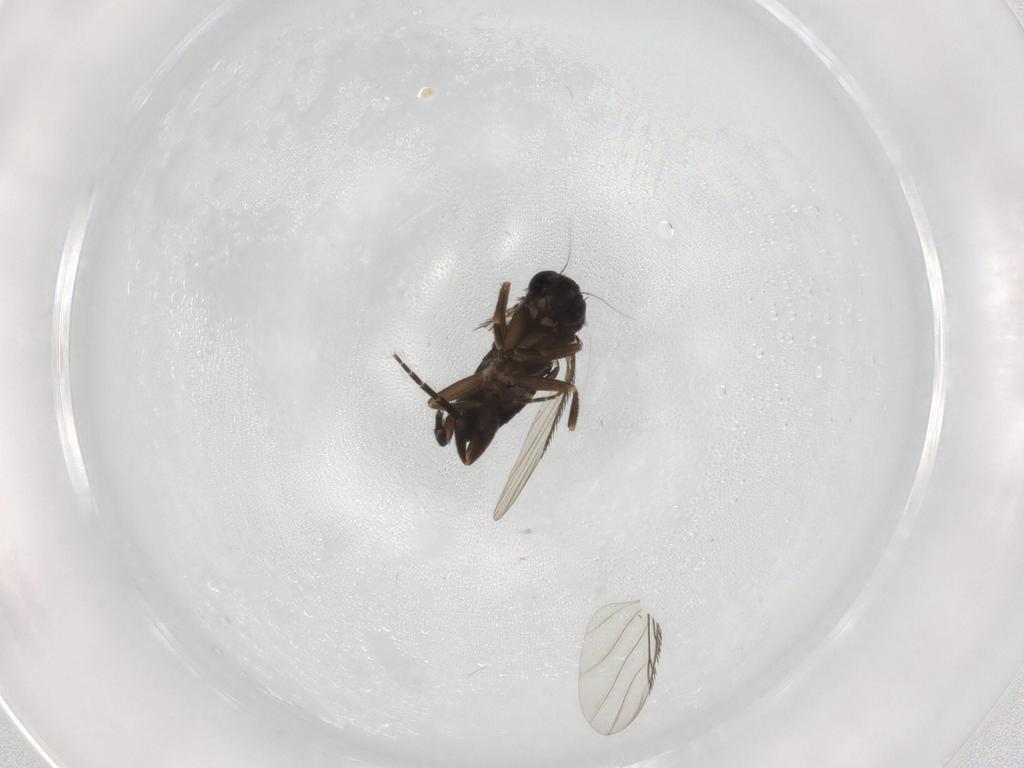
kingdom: Animalia
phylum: Arthropoda
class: Insecta
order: Diptera
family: Phoridae
